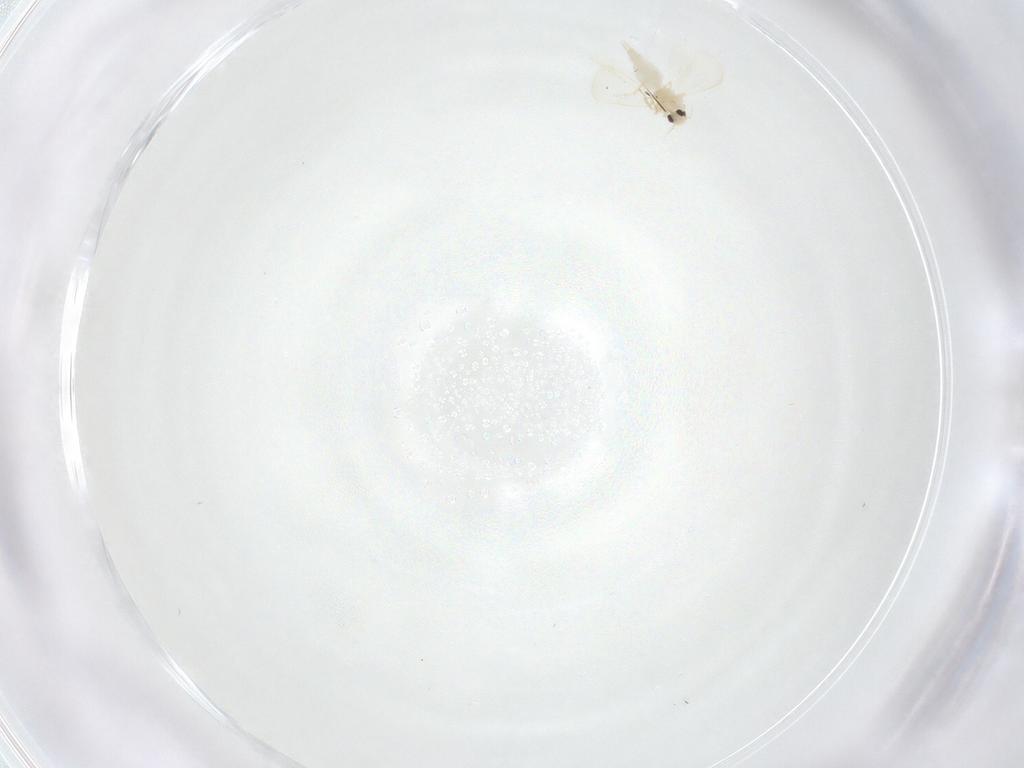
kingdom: Animalia
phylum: Arthropoda
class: Insecta
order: Hemiptera
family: Aleyrodidae
